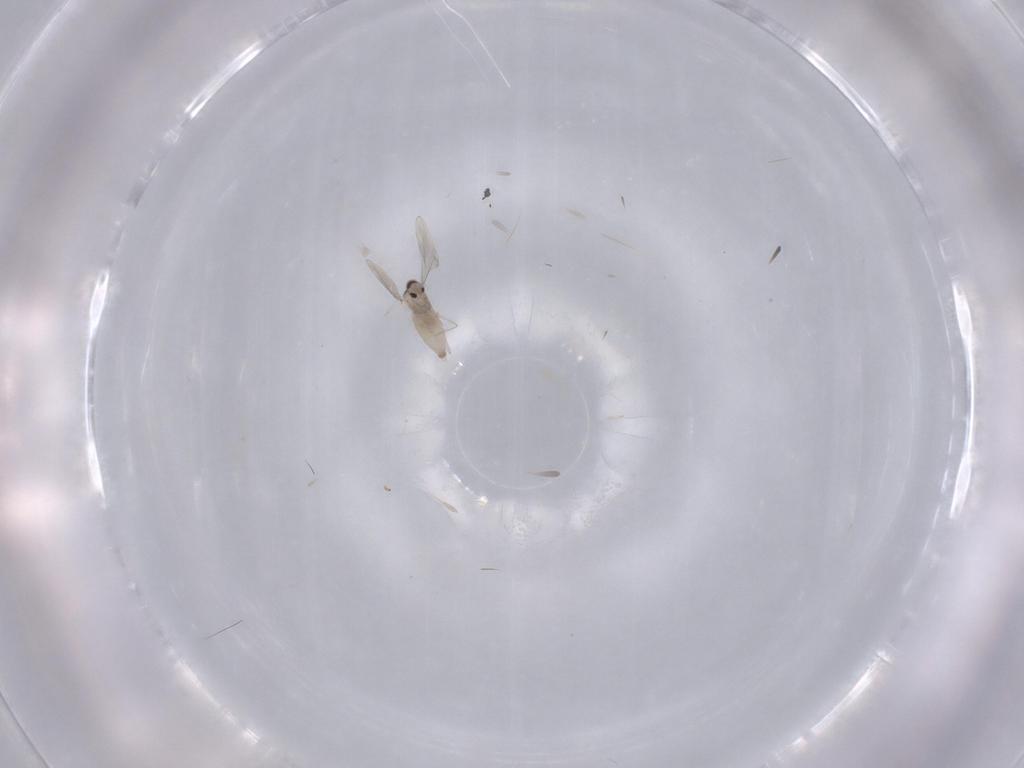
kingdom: Animalia
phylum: Arthropoda
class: Insecta
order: Diptera
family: Cecidomyiidae
